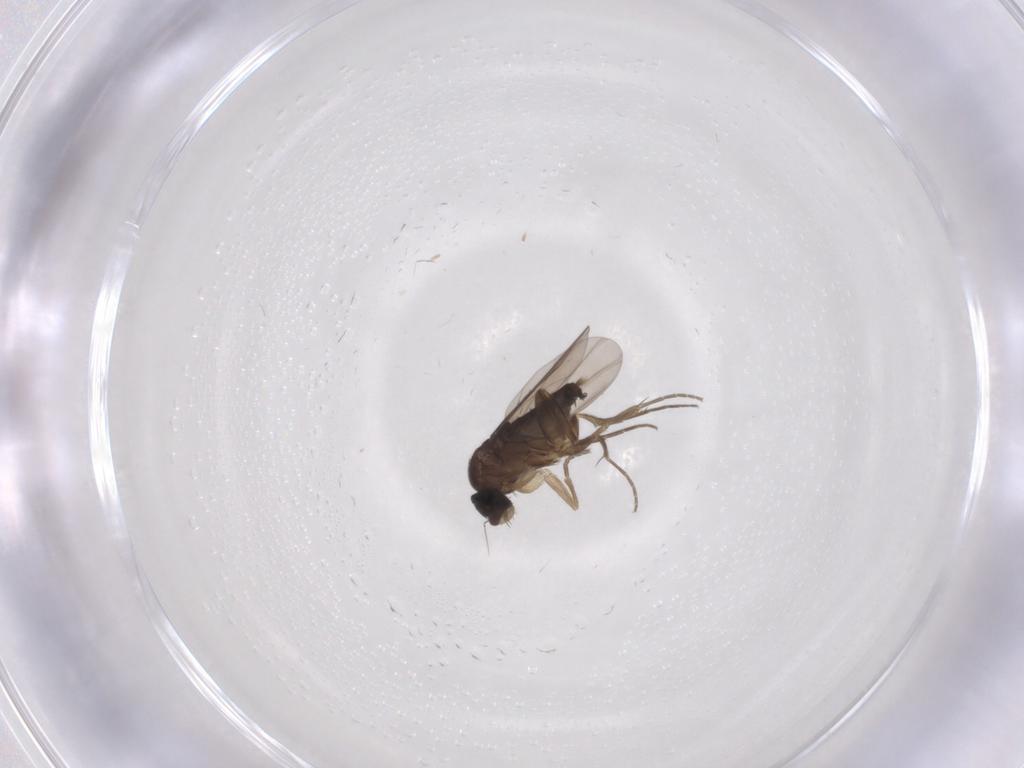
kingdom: Animalia
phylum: Arthropoda
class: Insecta
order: Diptera
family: Phoridae
